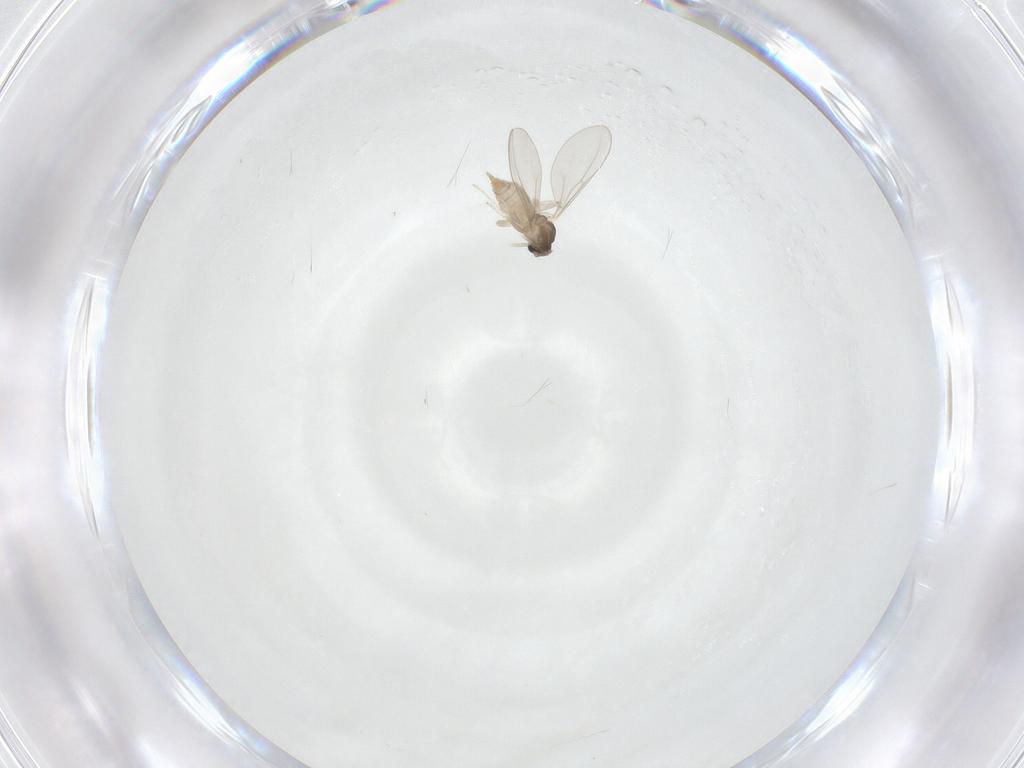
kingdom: Animalia
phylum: Arthropoda
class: Insecta
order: Diptera
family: Cecidomyiidae
